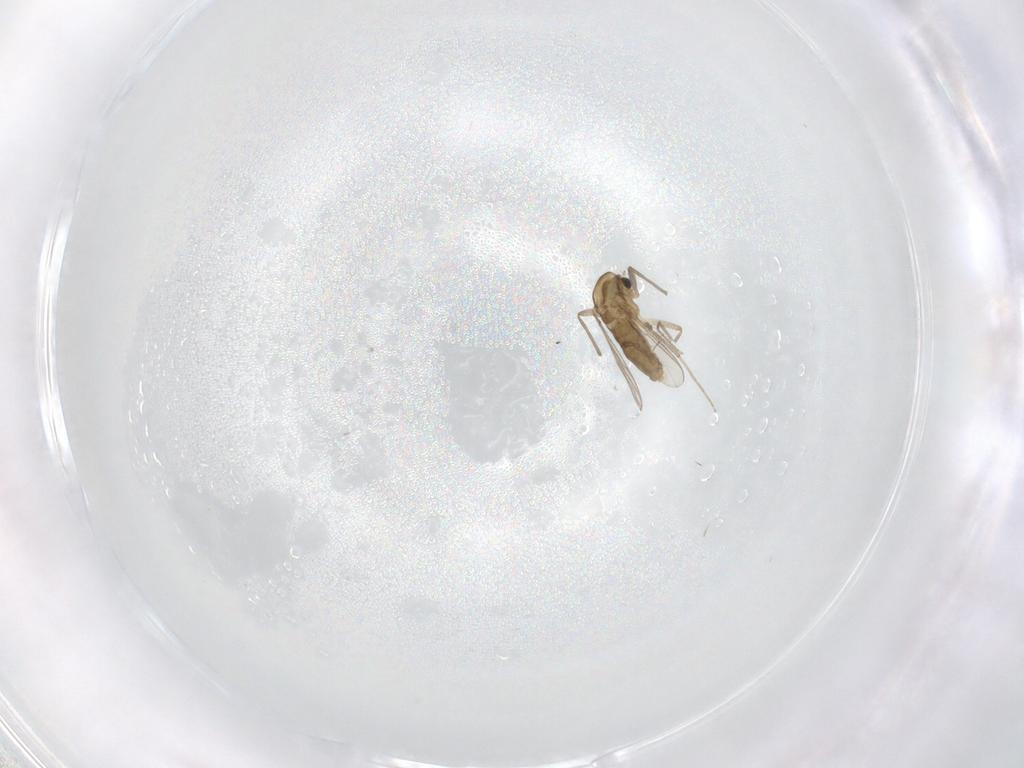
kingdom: Animalia
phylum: Arthropoda
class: Insecta
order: Diptera
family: Chironomidae
